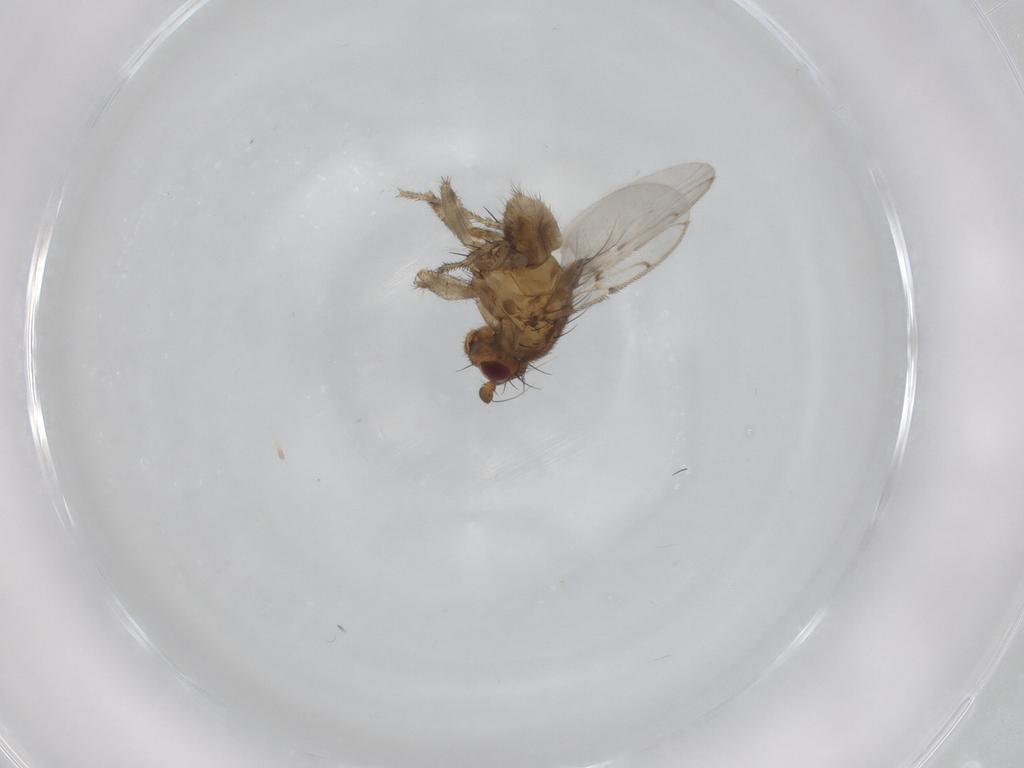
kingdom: Animalia
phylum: Arthropoda
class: Insecta
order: Diptera
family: Sphaeroceridae
